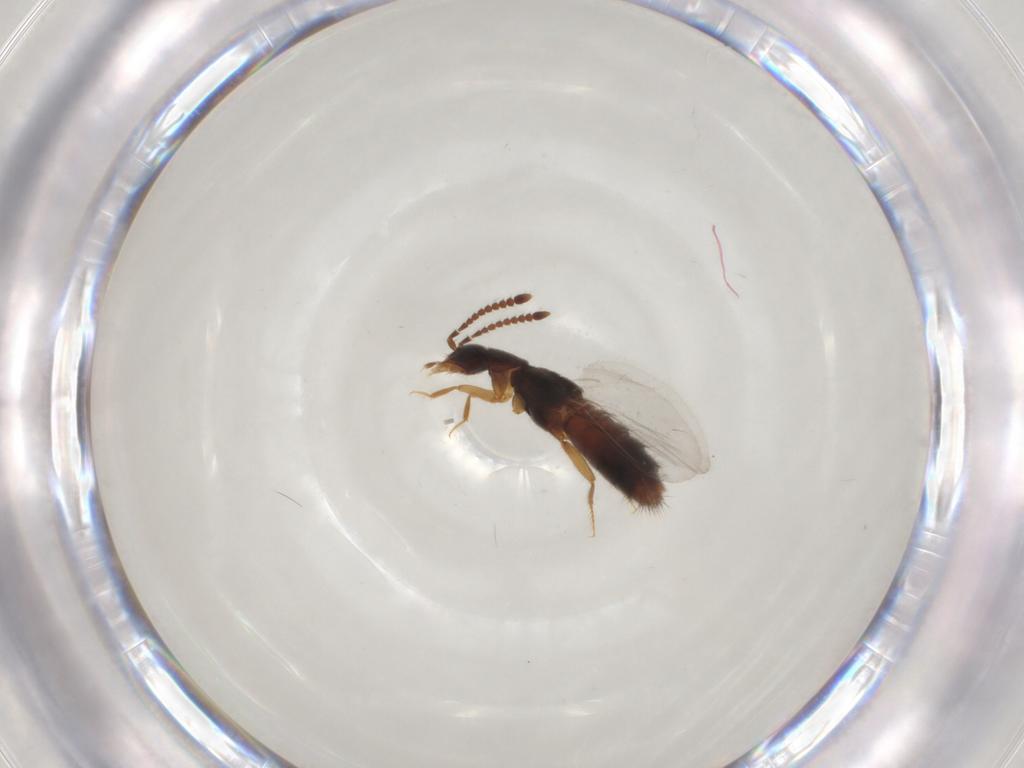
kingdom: Animalia
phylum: Arthropoda
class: Insecta
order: Coleoptera
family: Staphylinidae
